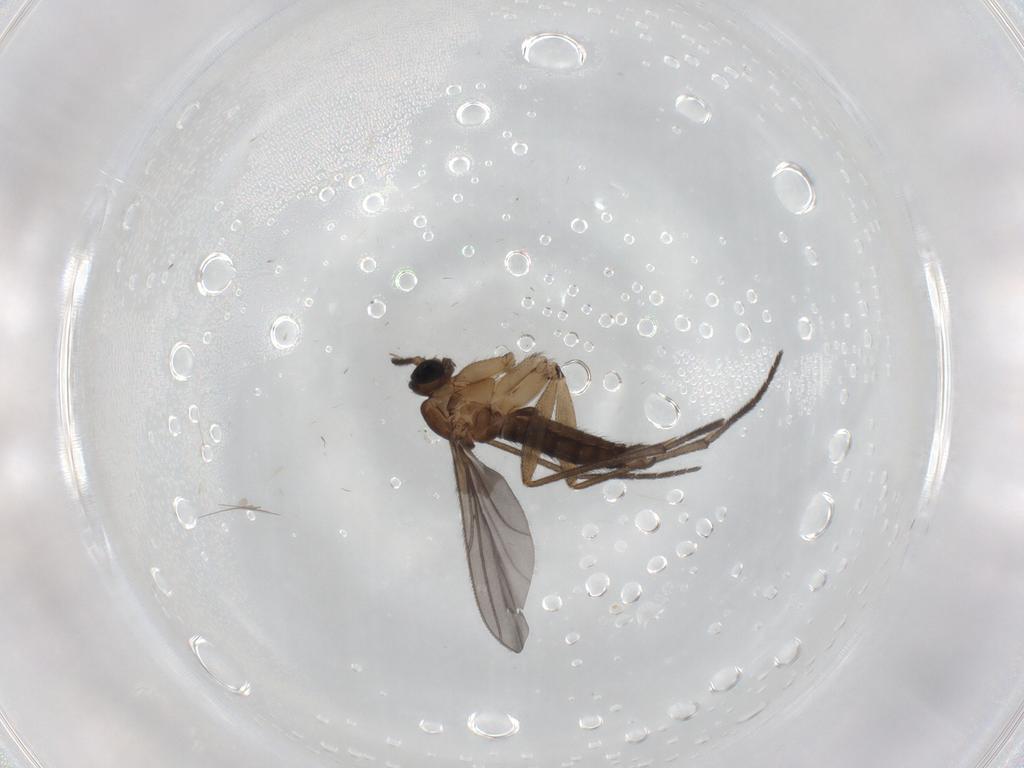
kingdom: Animalia
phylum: Arthropoda
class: Insecta
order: Diptera
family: Sciaridae
